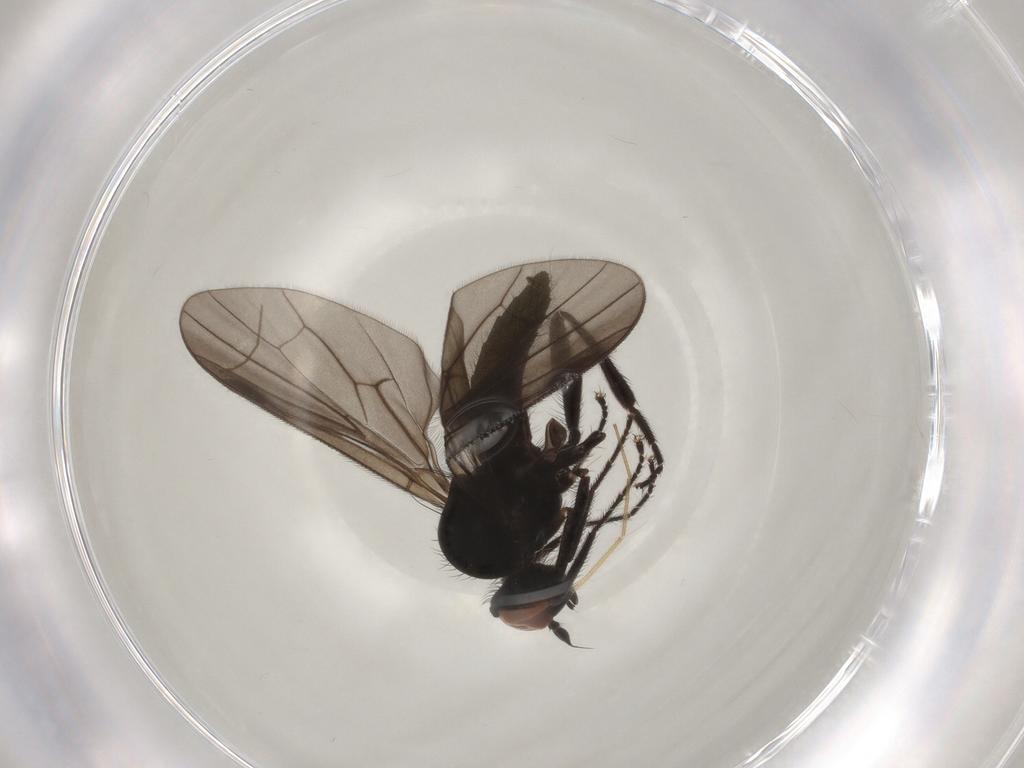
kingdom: Animalia
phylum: Arthropoda
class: Insecta
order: Diptera
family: Hybotidae
